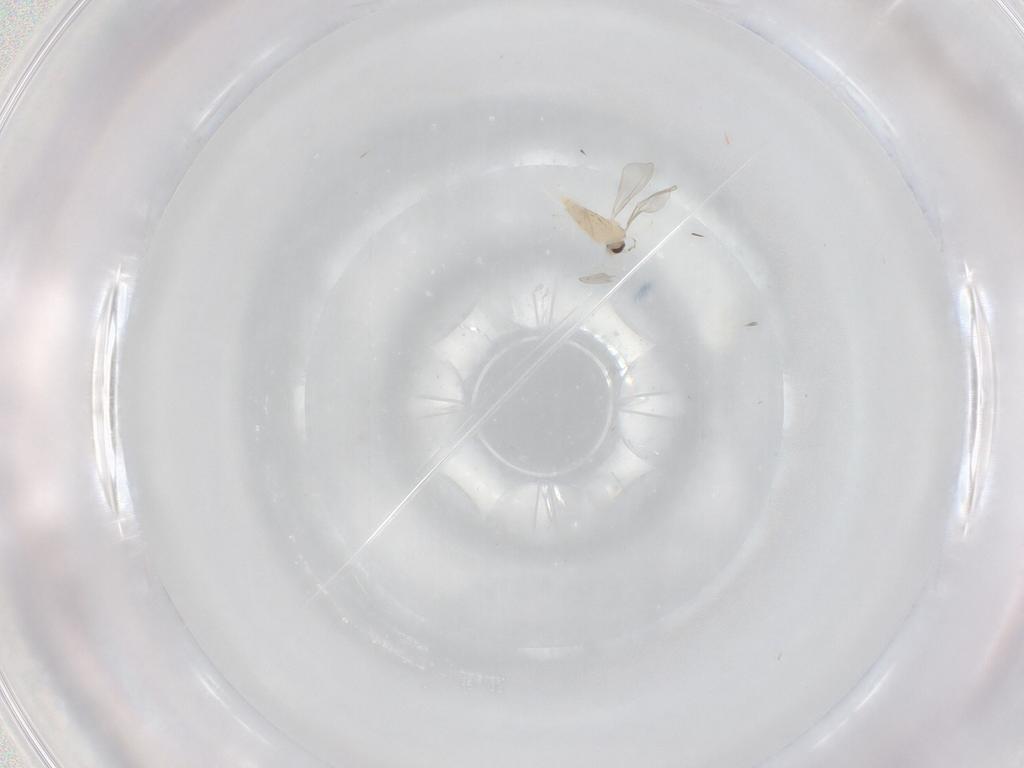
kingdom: Animalia
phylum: Arthropoda
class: Insecta
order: Diptera
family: Cecidomyiidae
